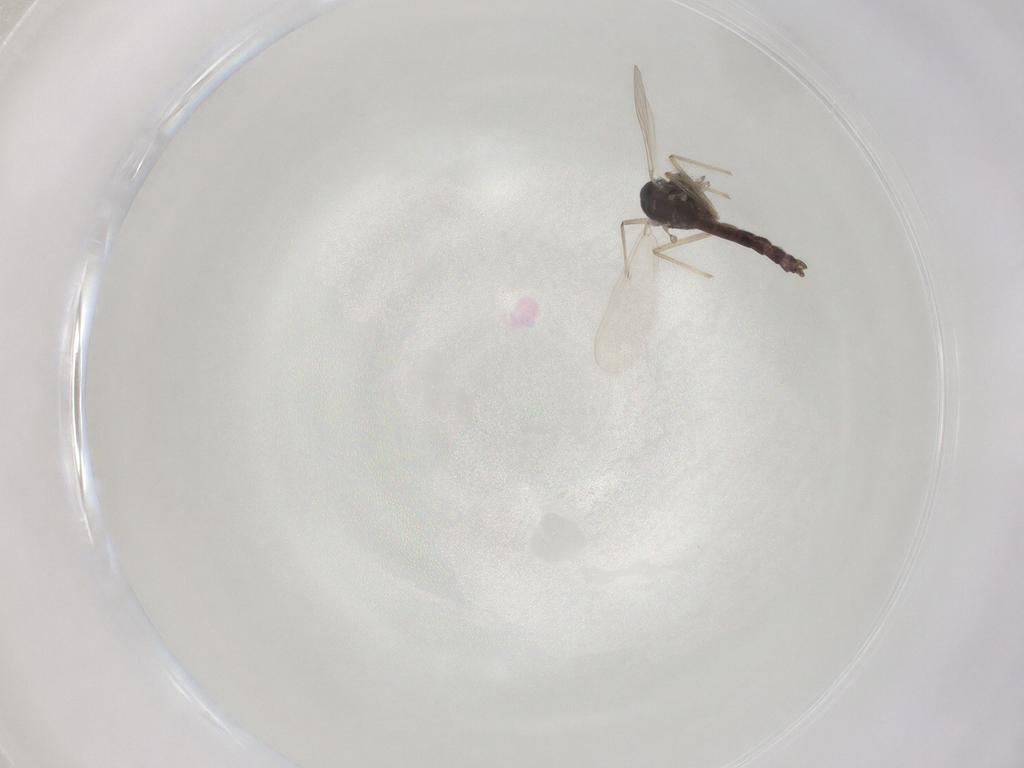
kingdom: Animalia
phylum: Arthropoda
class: Insecta
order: Diptera
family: Chironomidae
